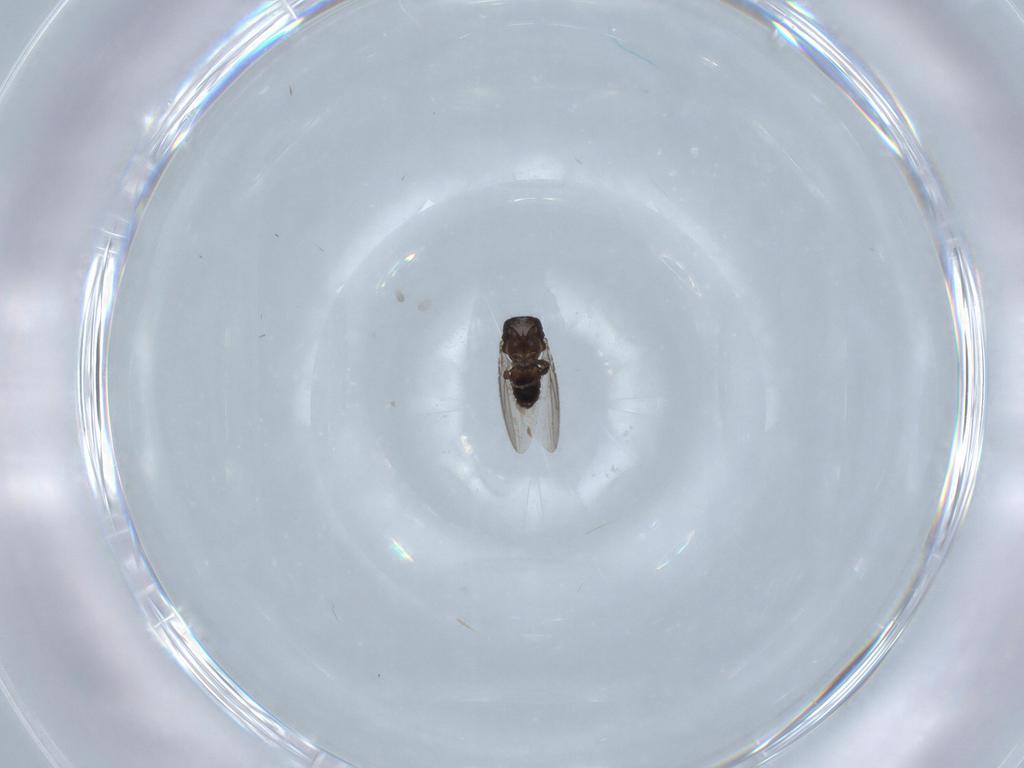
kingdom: Animalia
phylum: Arthropoda
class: Insecta
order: Diptera
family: Sphaeroceridae
